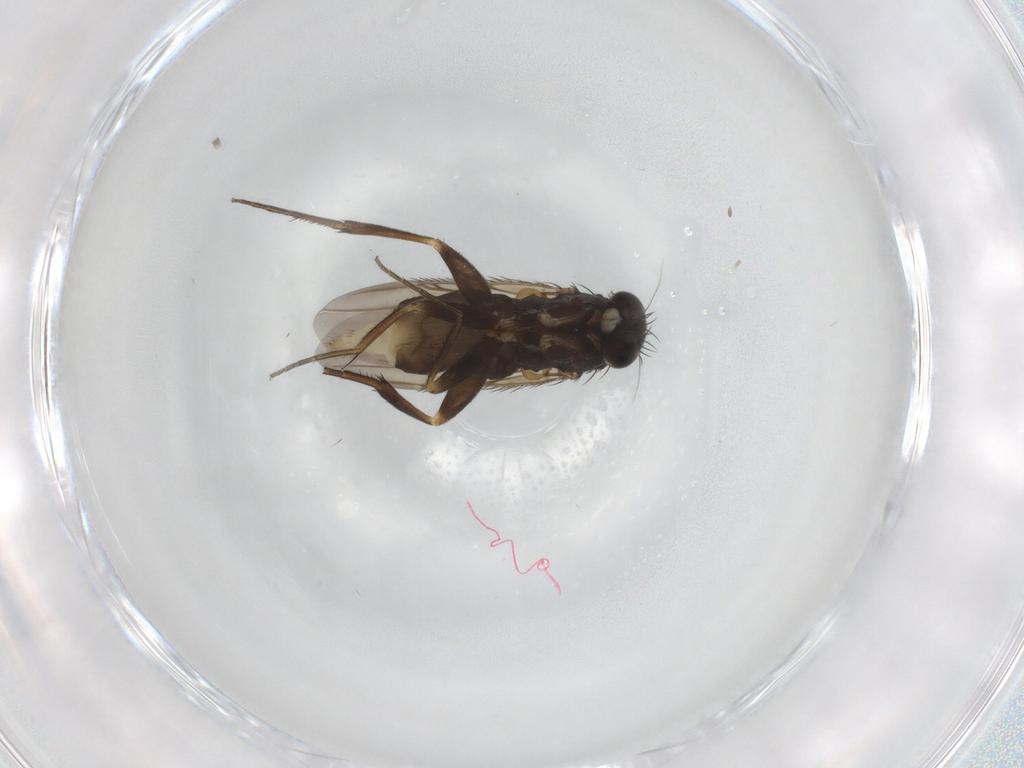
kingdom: Animalia
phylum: Arthropoda
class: Insecta
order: Diptera
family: Phoridae
